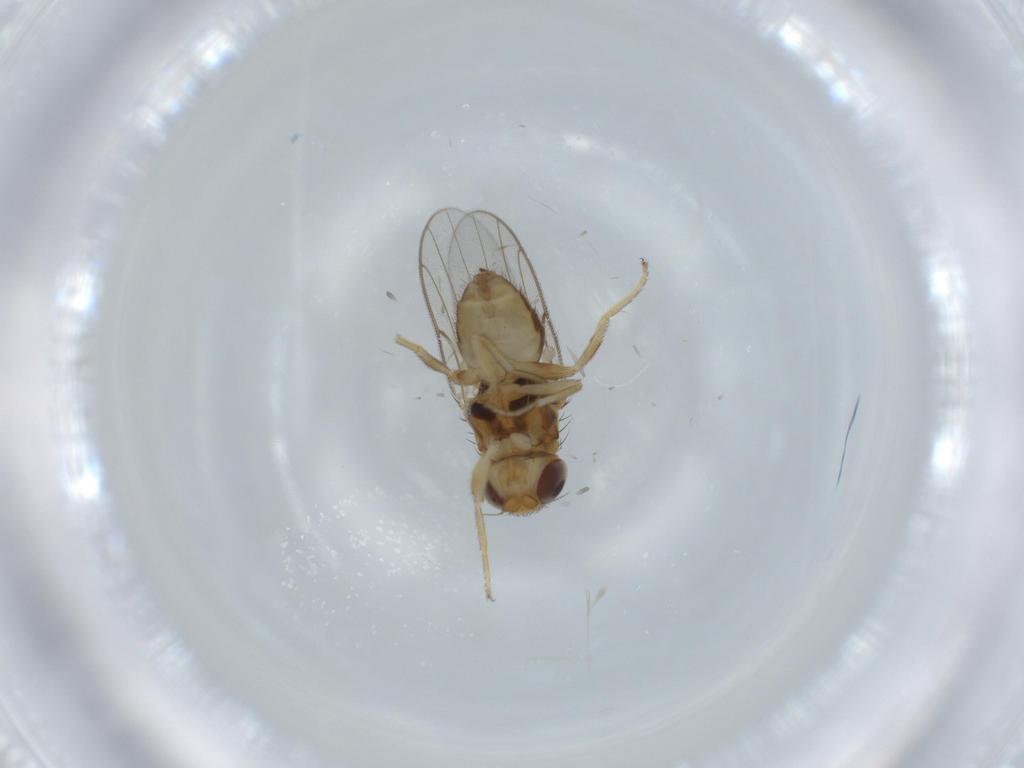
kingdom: Animalia
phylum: Arthropoda
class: Insecta
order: Diptera
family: Chloropidae
